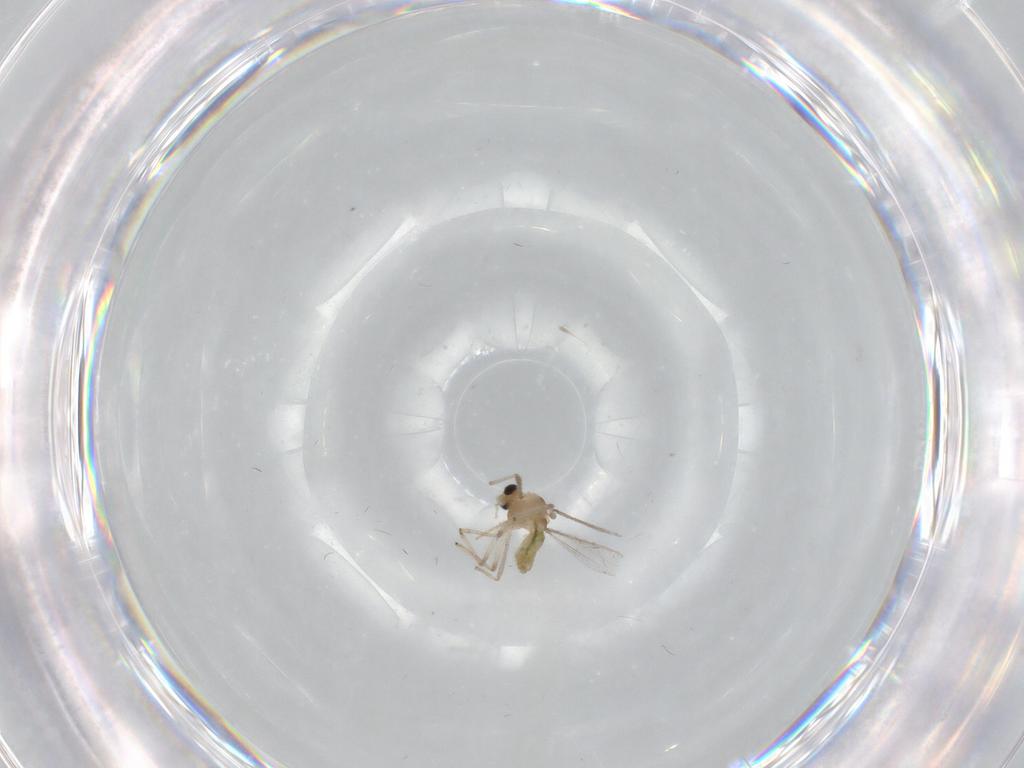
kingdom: Animalia
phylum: Arthropoda
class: Insecta
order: Diptera
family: Chironomidae
